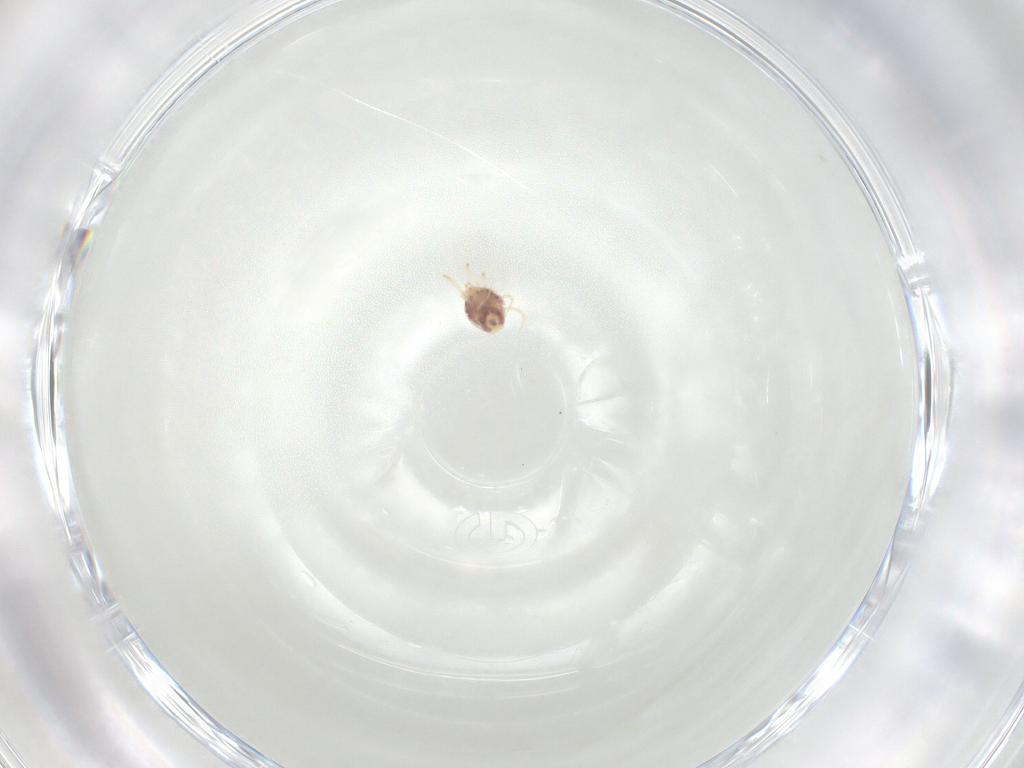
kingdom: Animalia
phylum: Arthropoda
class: Arachnida
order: Mesostigmata
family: Phytoseiidae
